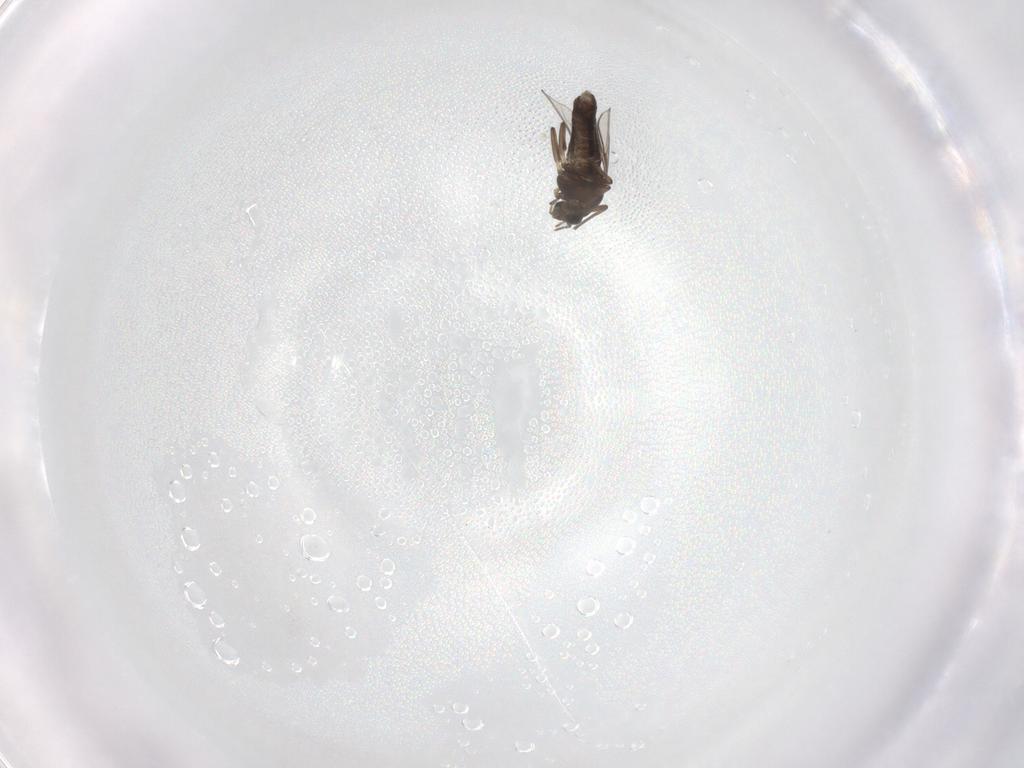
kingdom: Animalia
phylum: Arthropoda
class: Insecta
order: Diptera
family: Chironomidae
